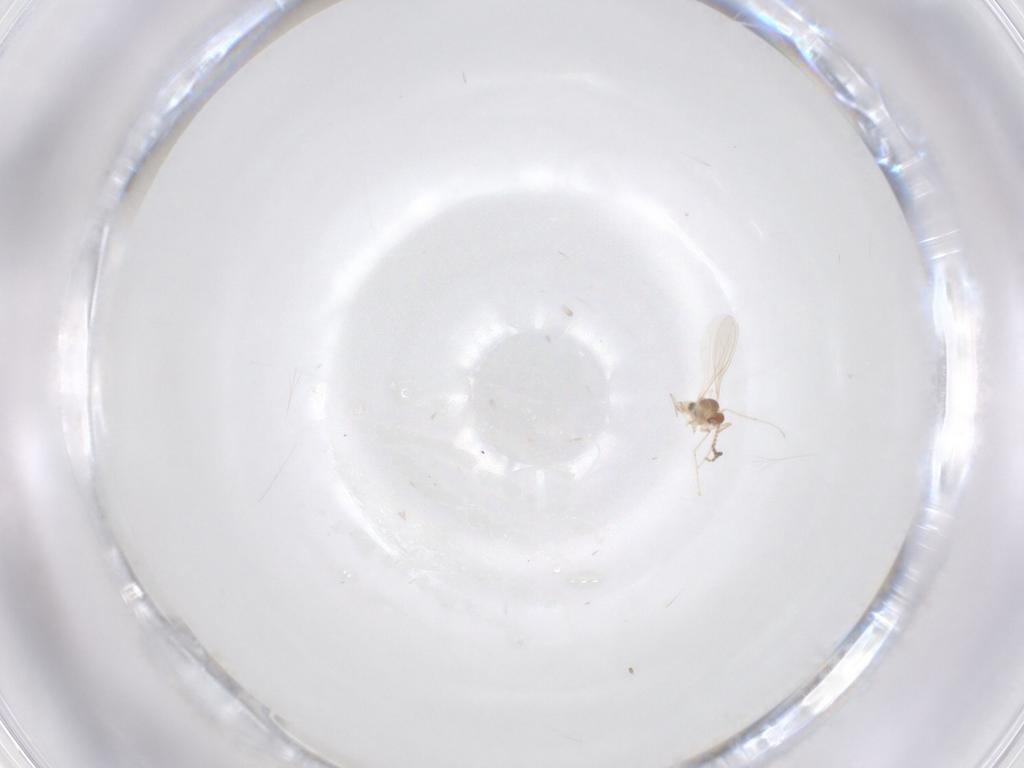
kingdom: Animalia
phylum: Arthropoda
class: Insecta
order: Diptera
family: Cecidomyiidae
